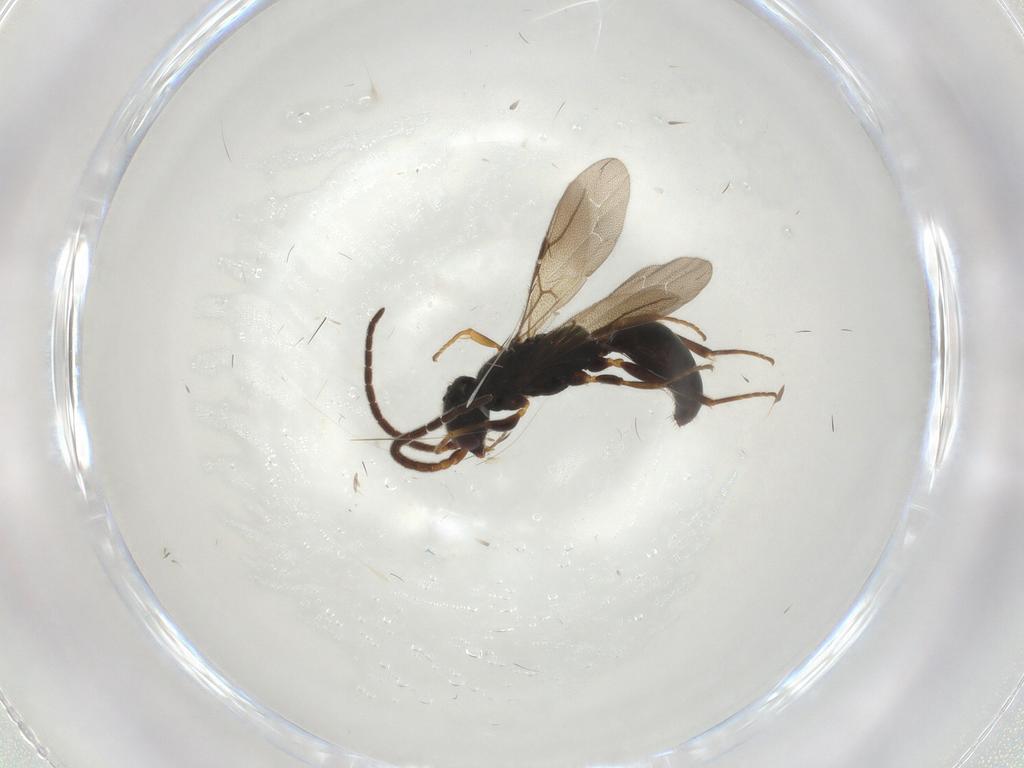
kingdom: Animalia
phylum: Arthropoda
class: Insecta
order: Hymenoptera
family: Bethylidae
